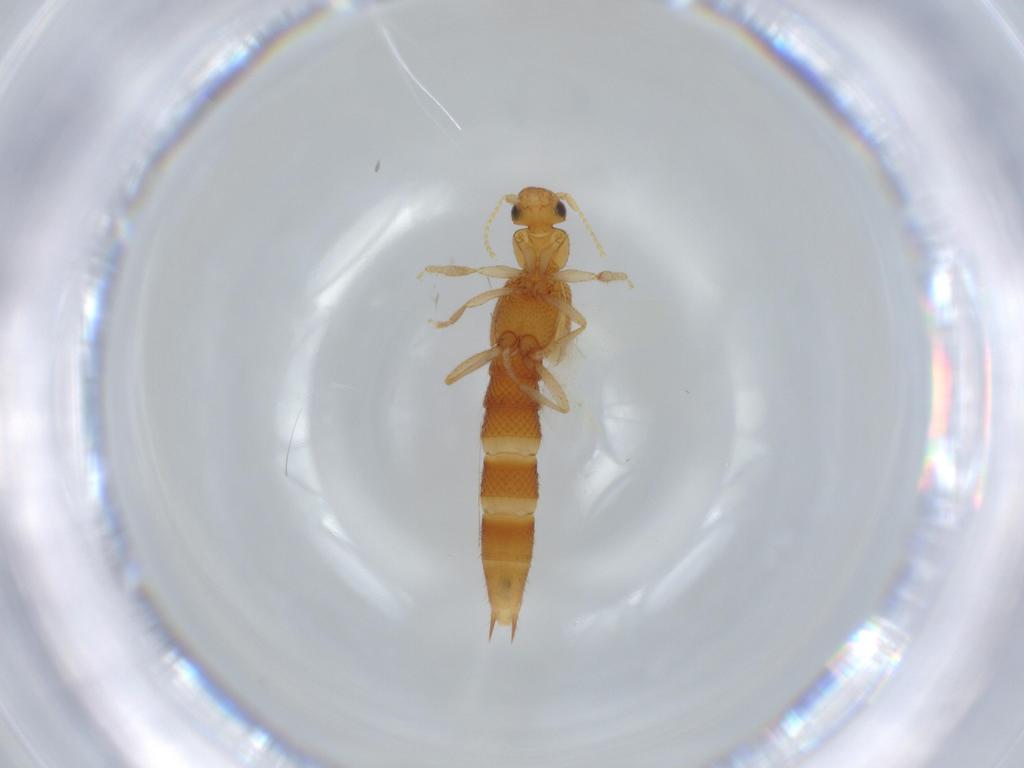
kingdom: Animalia
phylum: Arthropoda
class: Insecta
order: Coleoptera
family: Staphylinidae
